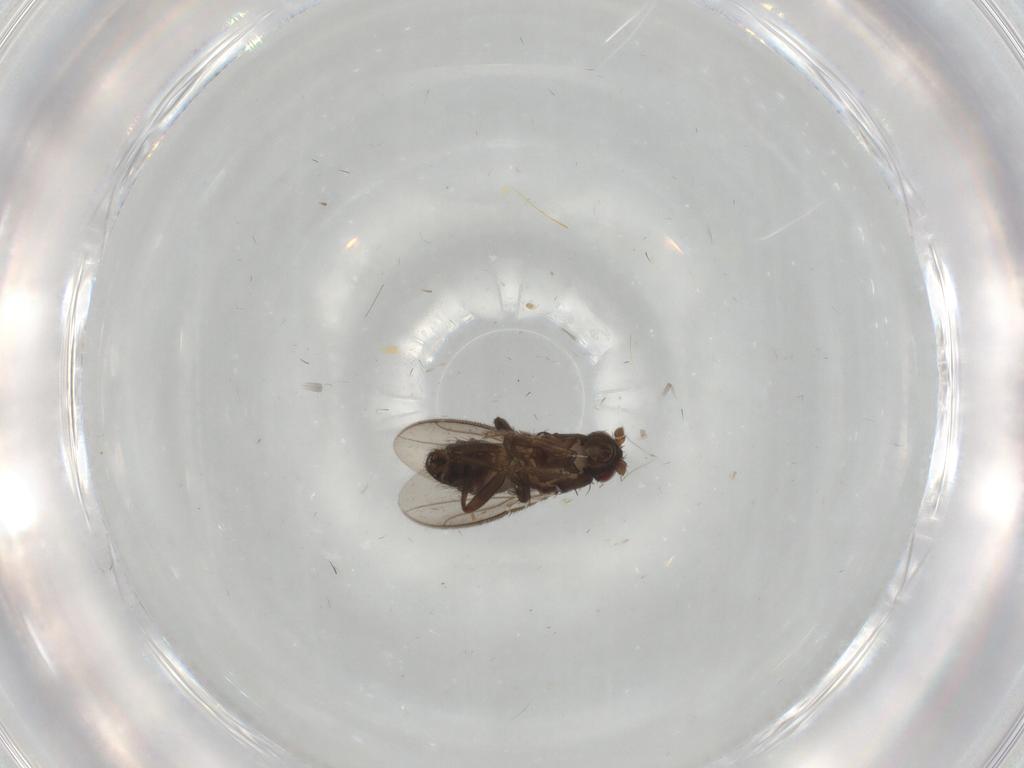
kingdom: Animalia
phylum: Arthropoda
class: Insecta
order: Diptera
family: Sphaeroceridae
